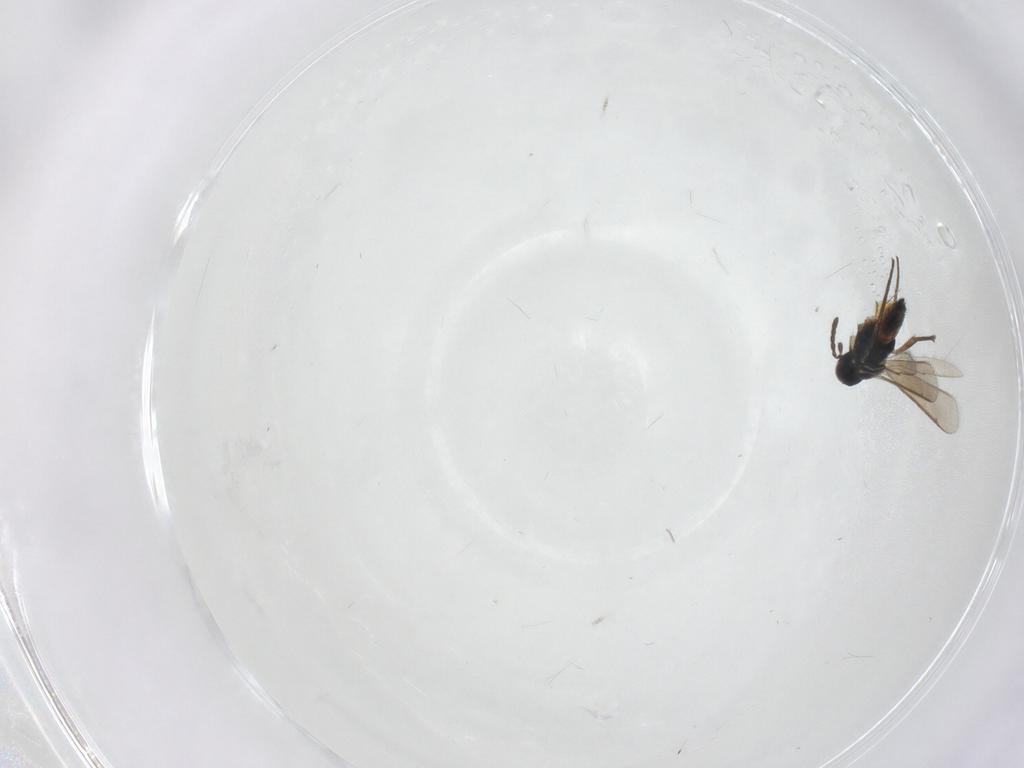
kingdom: Animalia
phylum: Arthropoda
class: Insecta
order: Hymenoptera
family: Eulophidae
